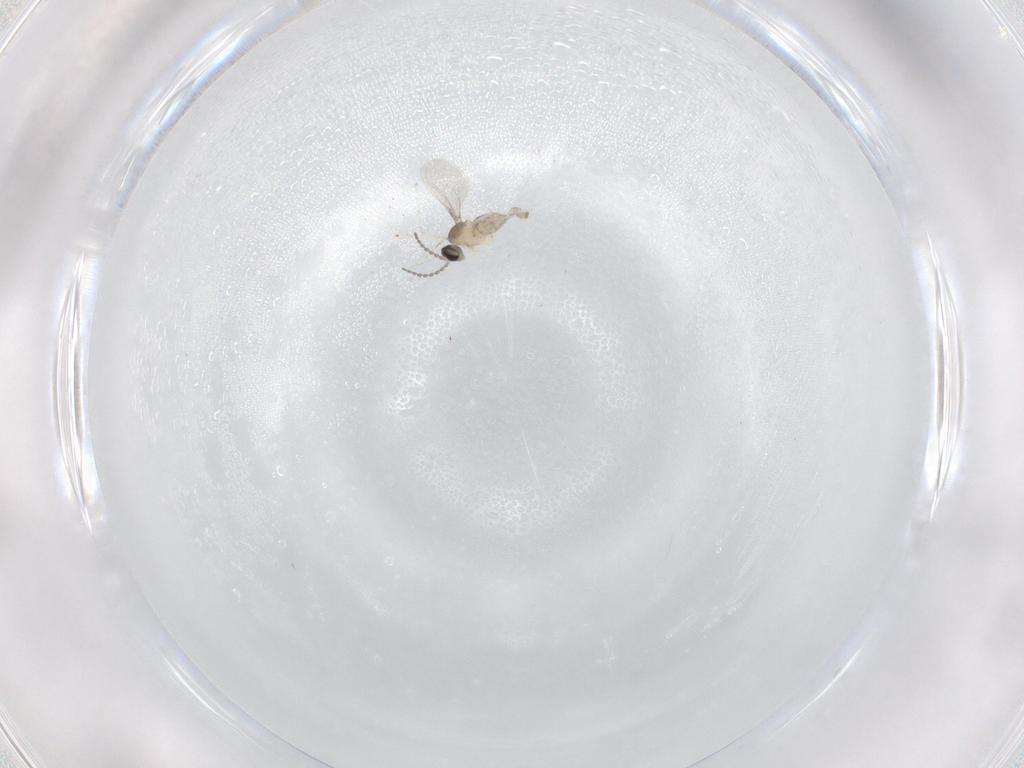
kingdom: Animalia
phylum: Arthropoda
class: Insecta
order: Diptera
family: Cecidomyiidae
